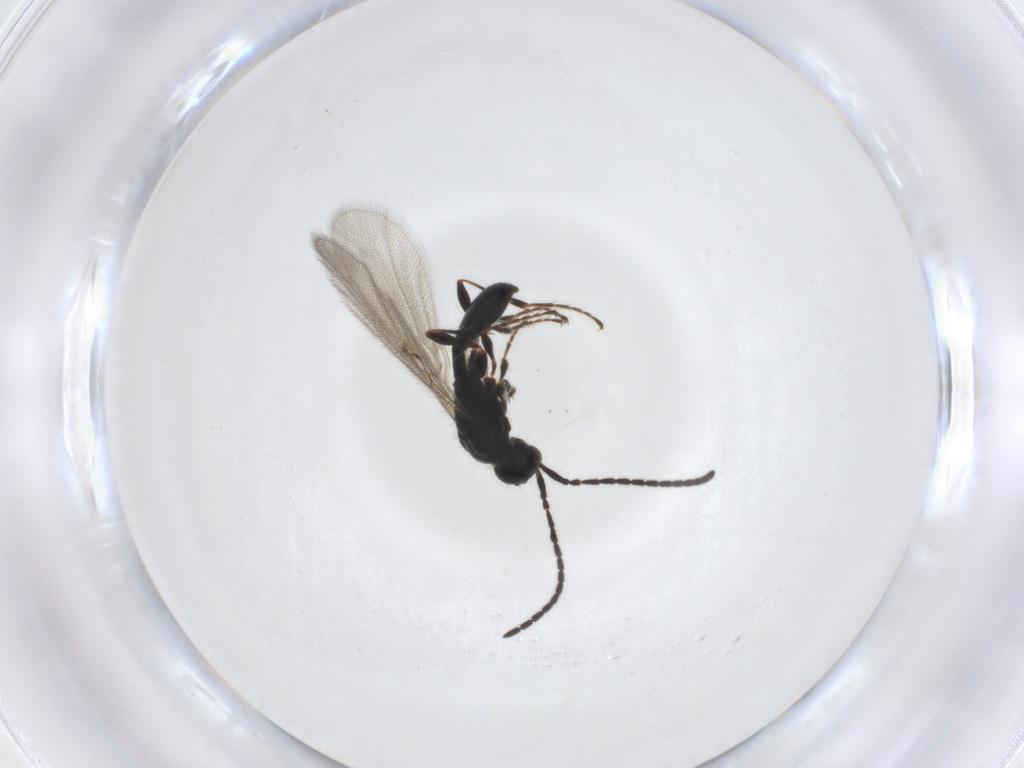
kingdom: Animalia
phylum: Arthropoda
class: Insecta
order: Hymenoptera
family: Diapriidae
